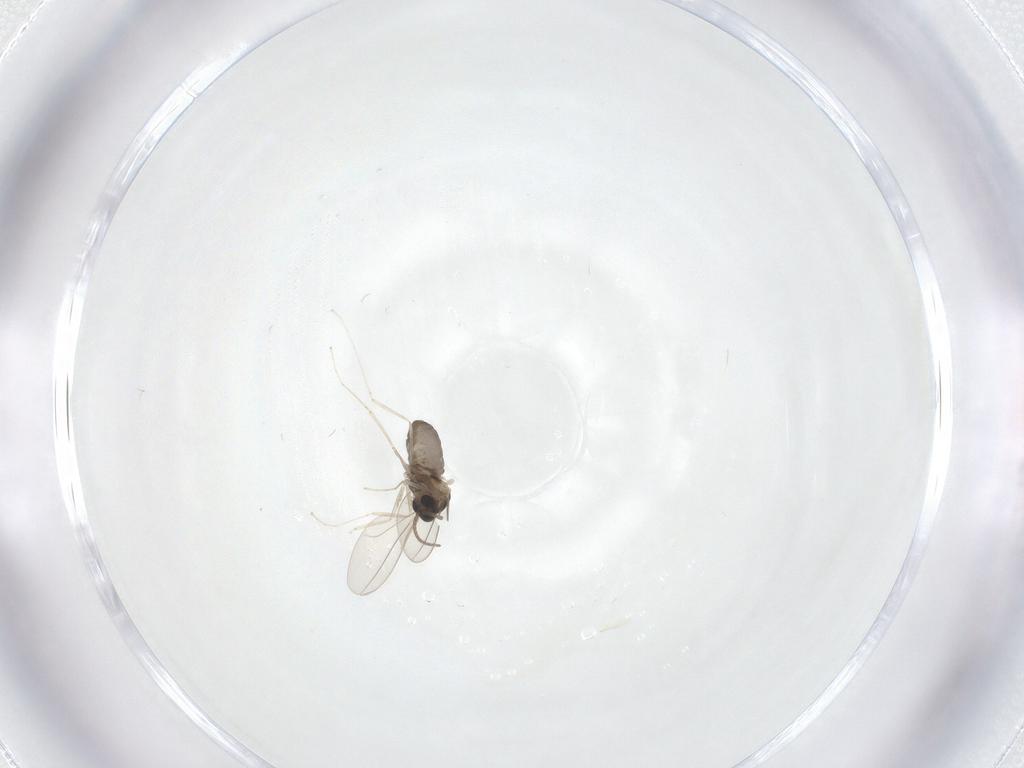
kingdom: Animalia
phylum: Arthropoda
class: Insecta
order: Diptera
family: Sciaridae
